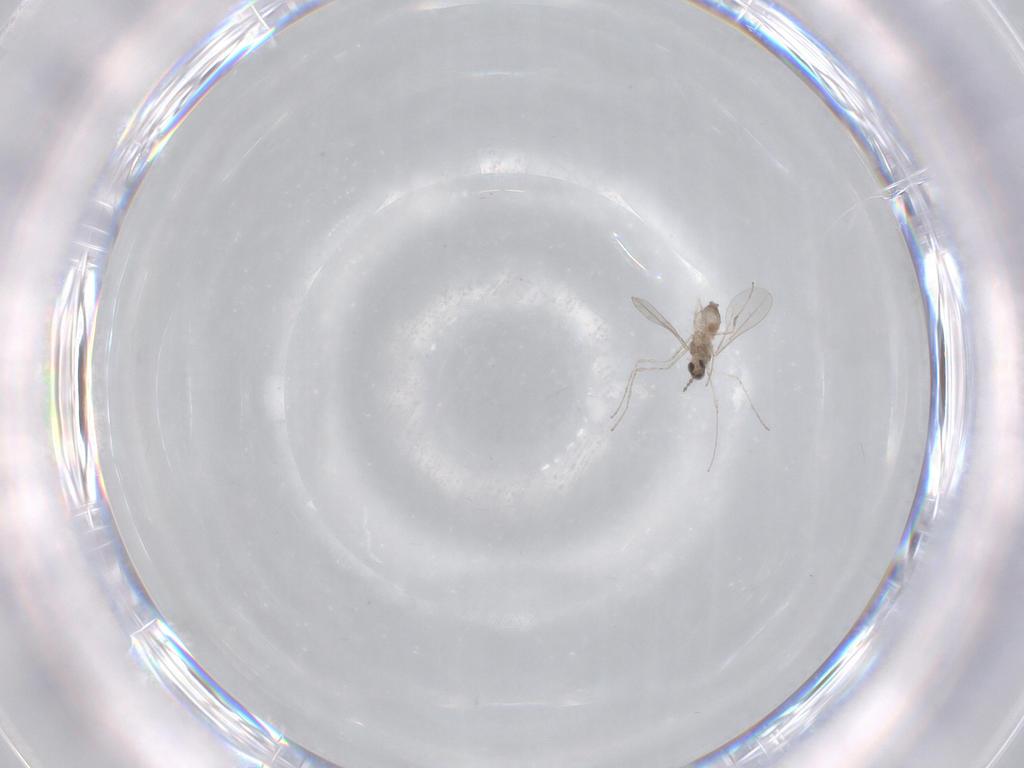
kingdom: Animalia
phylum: Arthropoda
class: Insecta
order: Diptera
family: Cecidomyiidae
